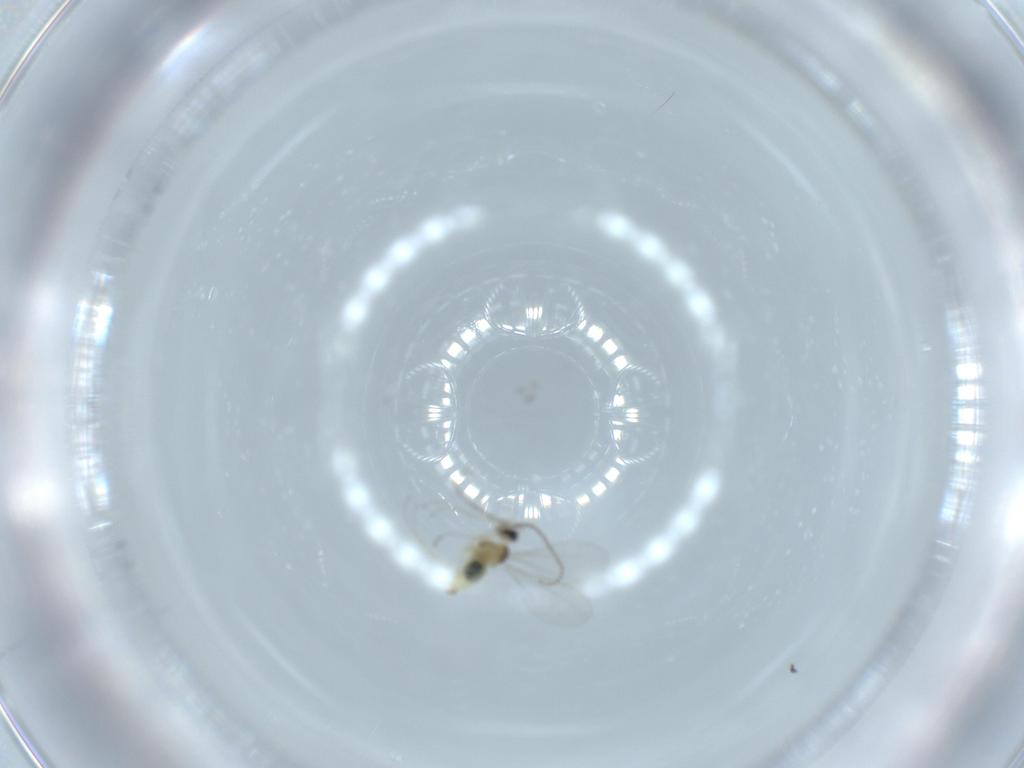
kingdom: Animalia
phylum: Arthropoda
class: Insecta
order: Diptera
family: Cecidomyiidae
